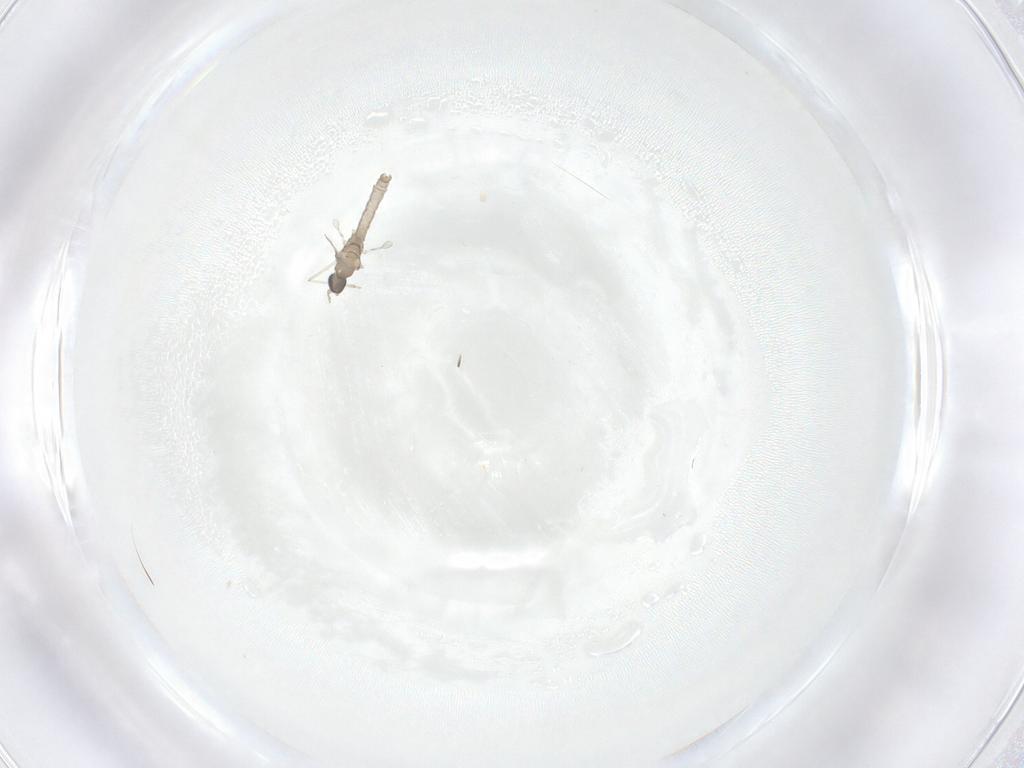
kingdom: Animalia
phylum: Arthropoda
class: Insecta
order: Diptera
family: Cecidomyiidae
